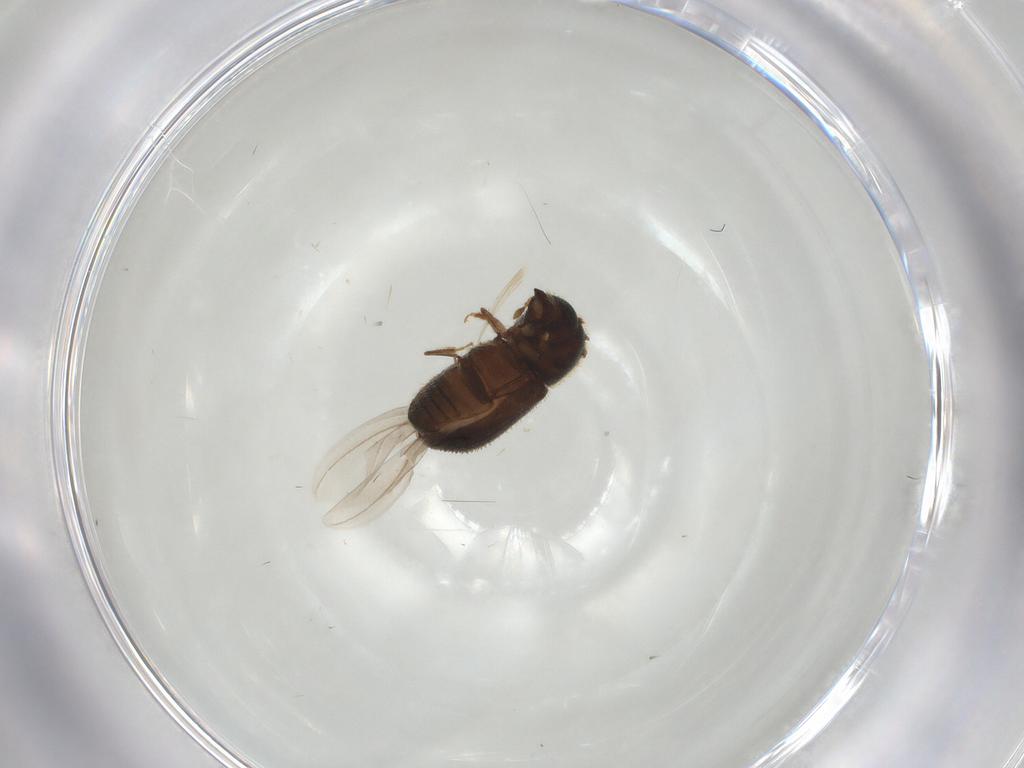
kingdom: Animalia
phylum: Arthropoda
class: Insecta
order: Coleoptera
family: Curculionidae
